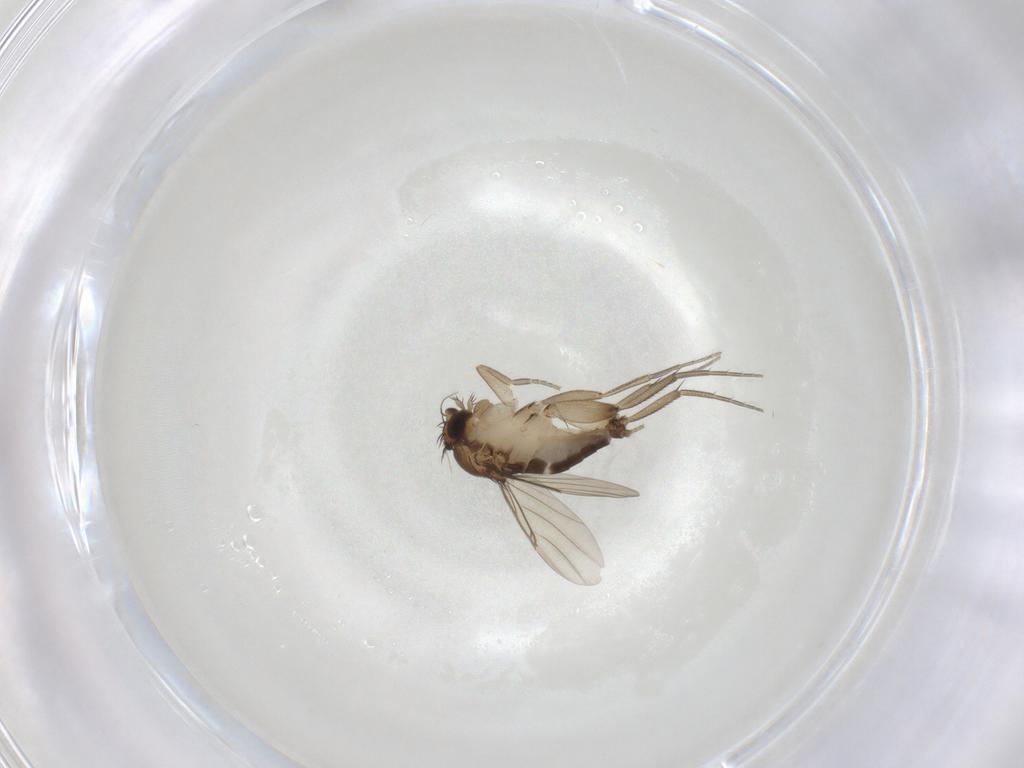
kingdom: Animalia
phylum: Arthropoda
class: Insecta
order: Diptera
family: Phoridae
